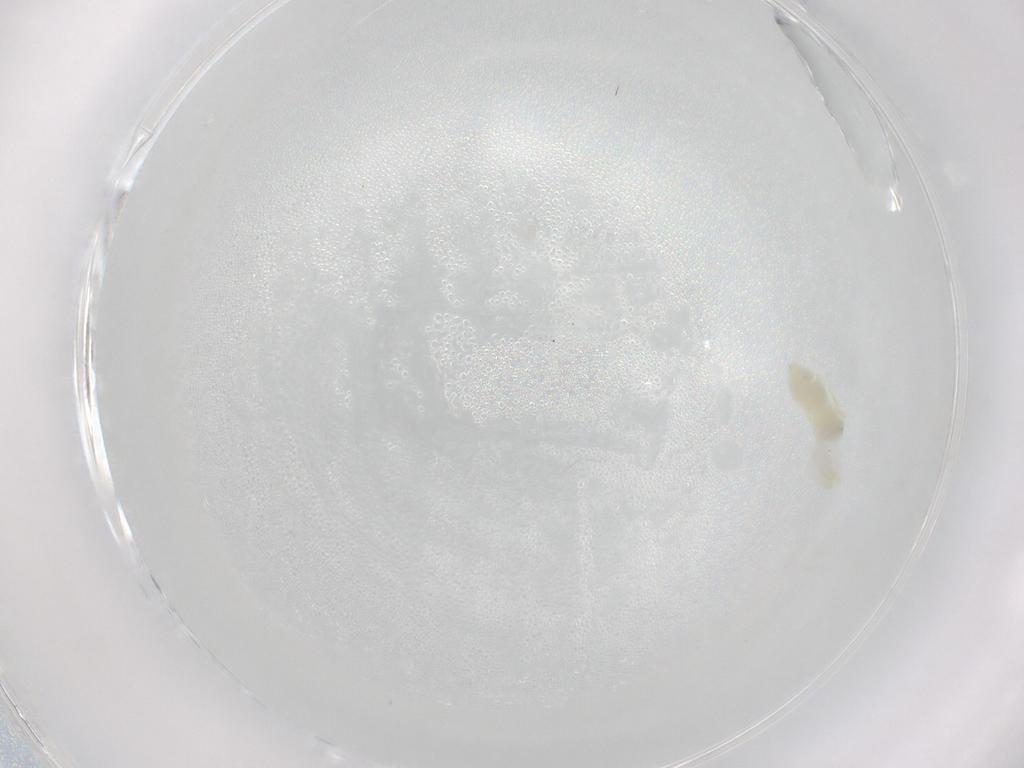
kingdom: Animalia
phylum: Arthropoda
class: Insecta
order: Hemiptera
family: Aphididae
